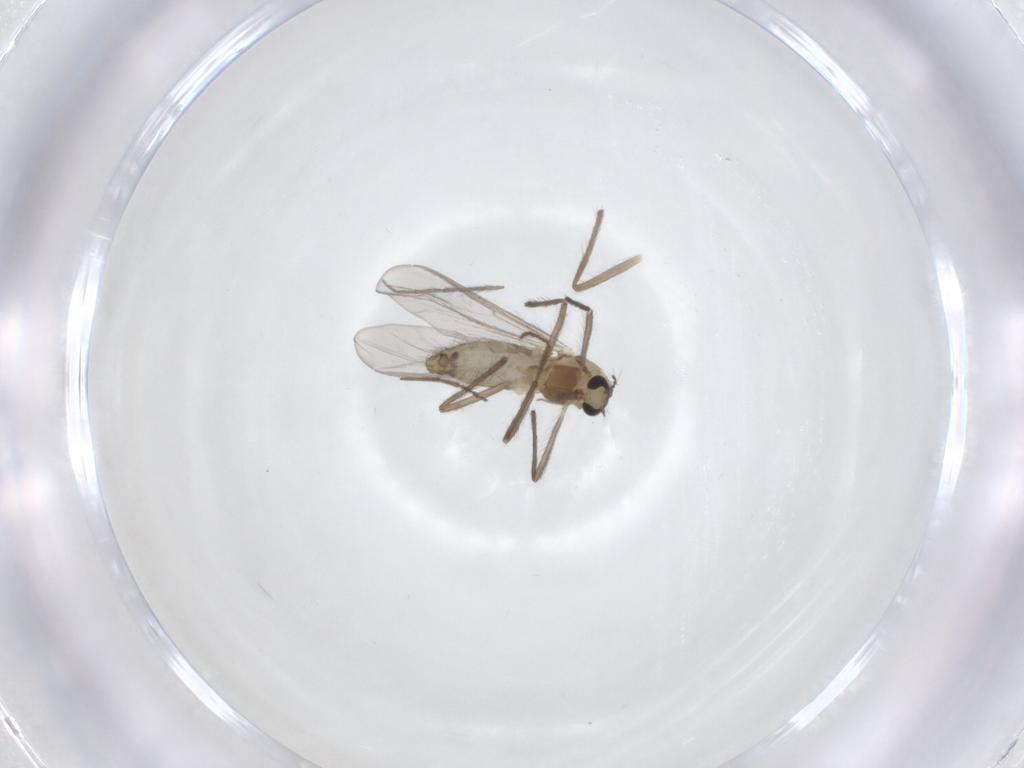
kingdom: Animalia
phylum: Arthropoda
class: Insecta
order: Diptera
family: Chironomidae
